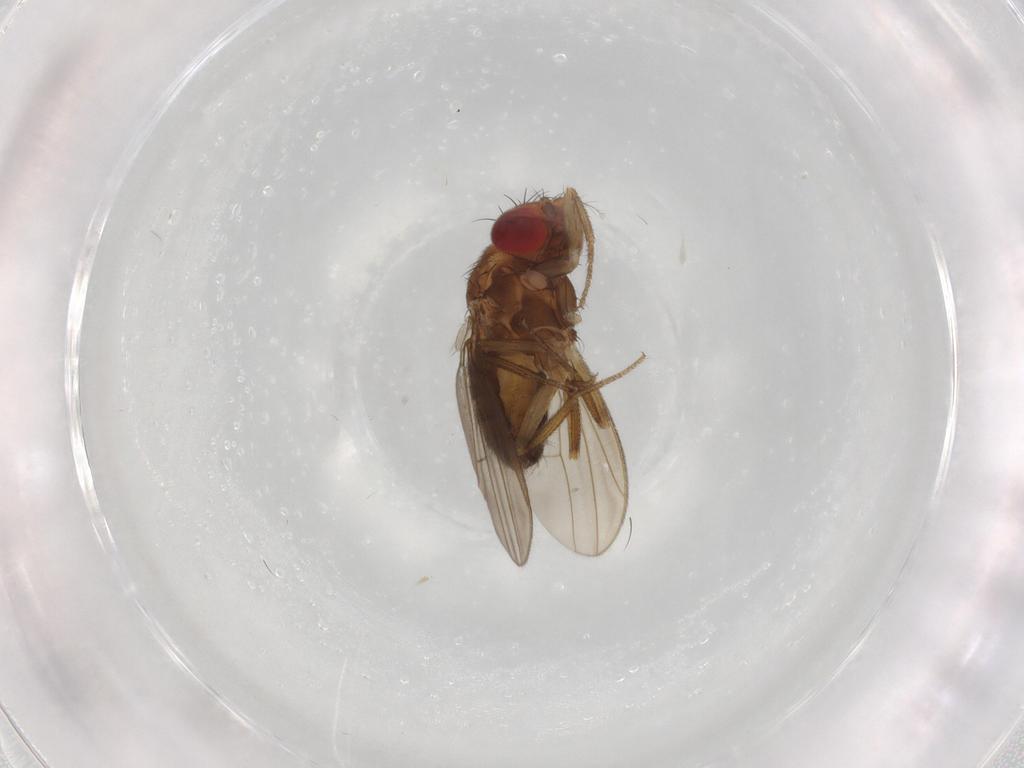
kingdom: Animalia
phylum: Arthropoda
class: Insecta
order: Diptera
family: Drosophilidae
